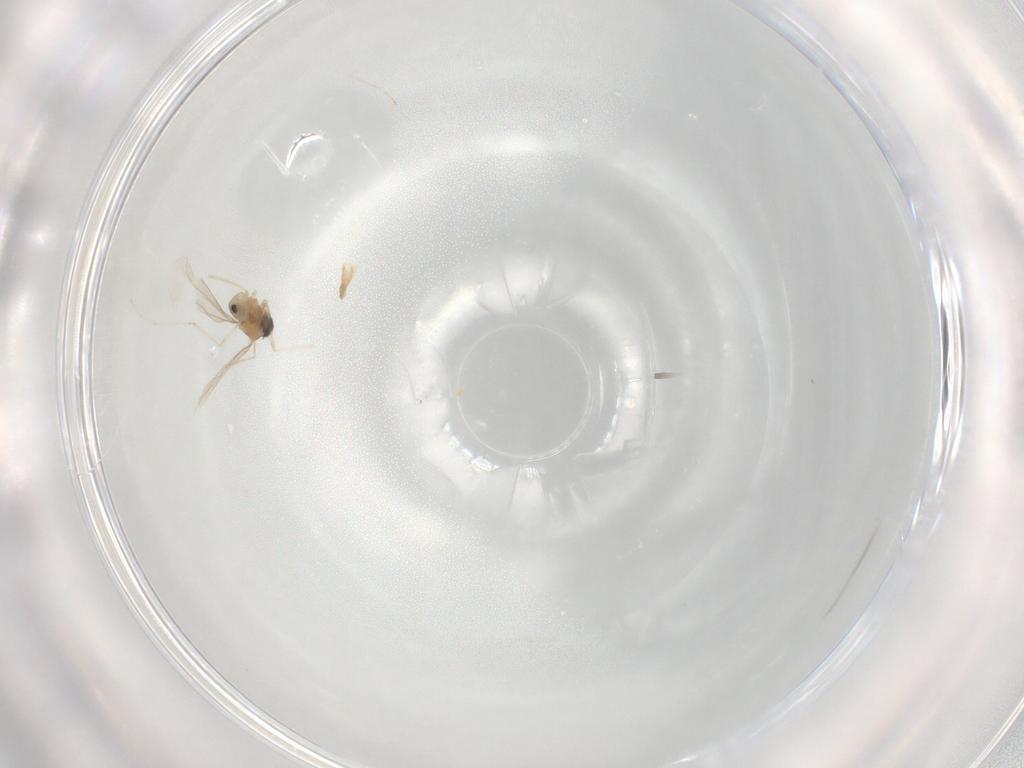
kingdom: Animalia
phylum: Arthropoda
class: Insecta
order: Diptera
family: Cecidomyiidae
